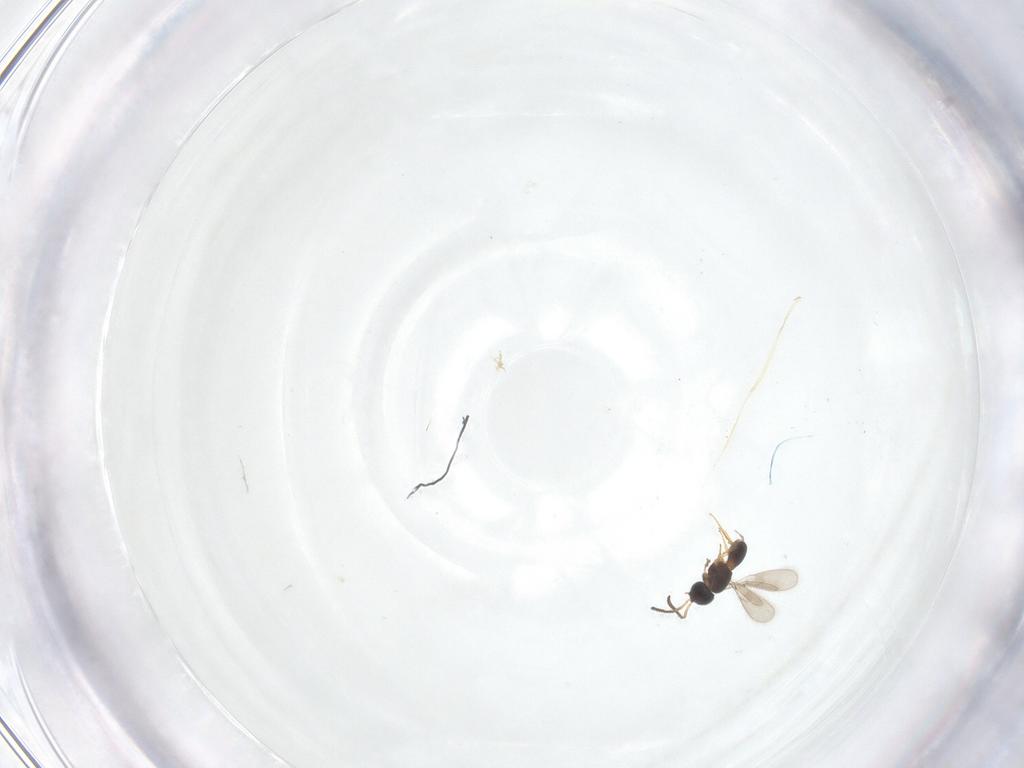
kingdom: Animalia
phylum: Arthropoda
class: Insecta
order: Hymenoptera
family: Scelionidae
